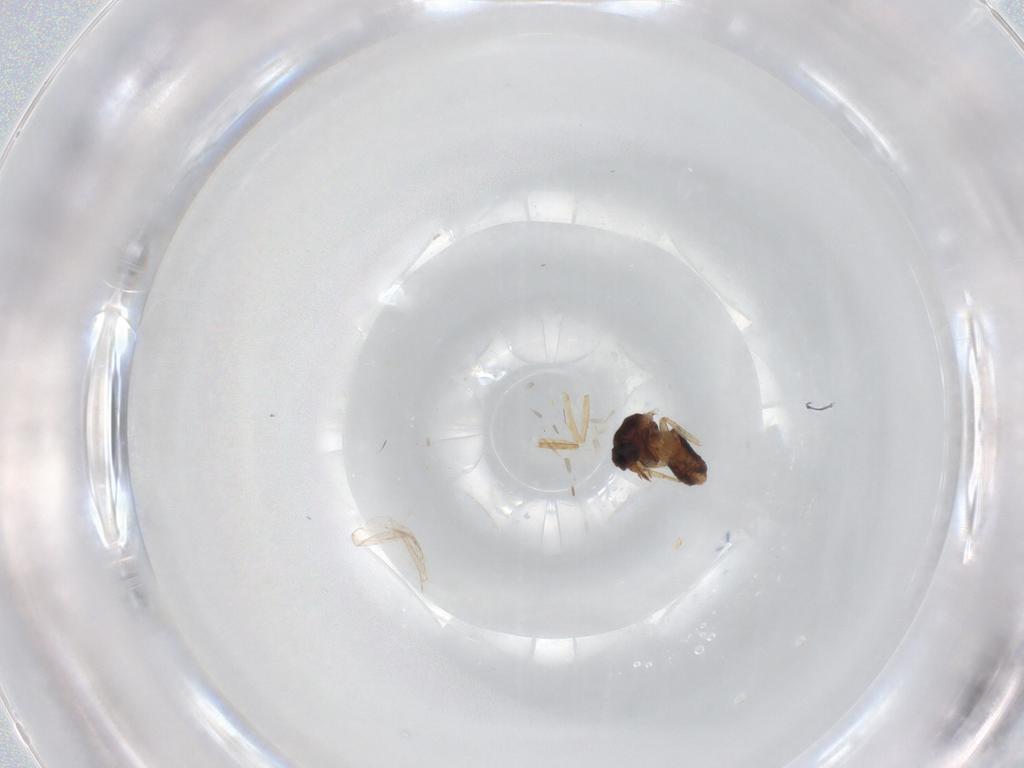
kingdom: Animalia
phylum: Arthropoda
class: Insecta
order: Diptera
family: Ceratopogonidae
